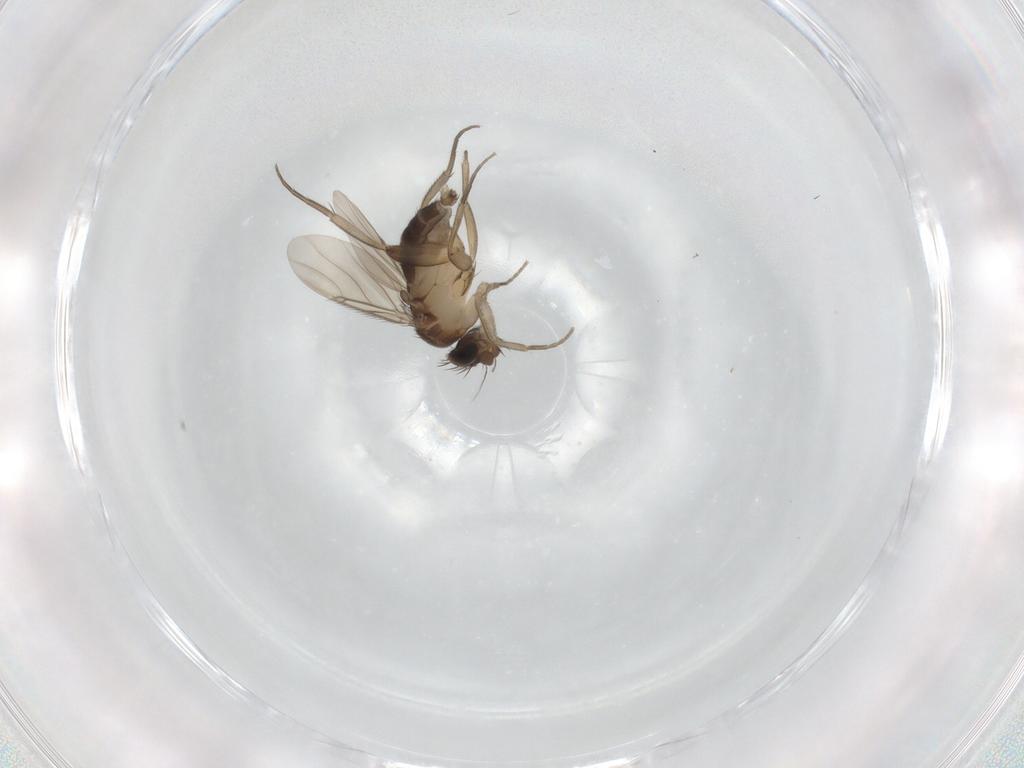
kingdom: Animalia
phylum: Arthropoda
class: Insecta
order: Diptera
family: Phoridae
